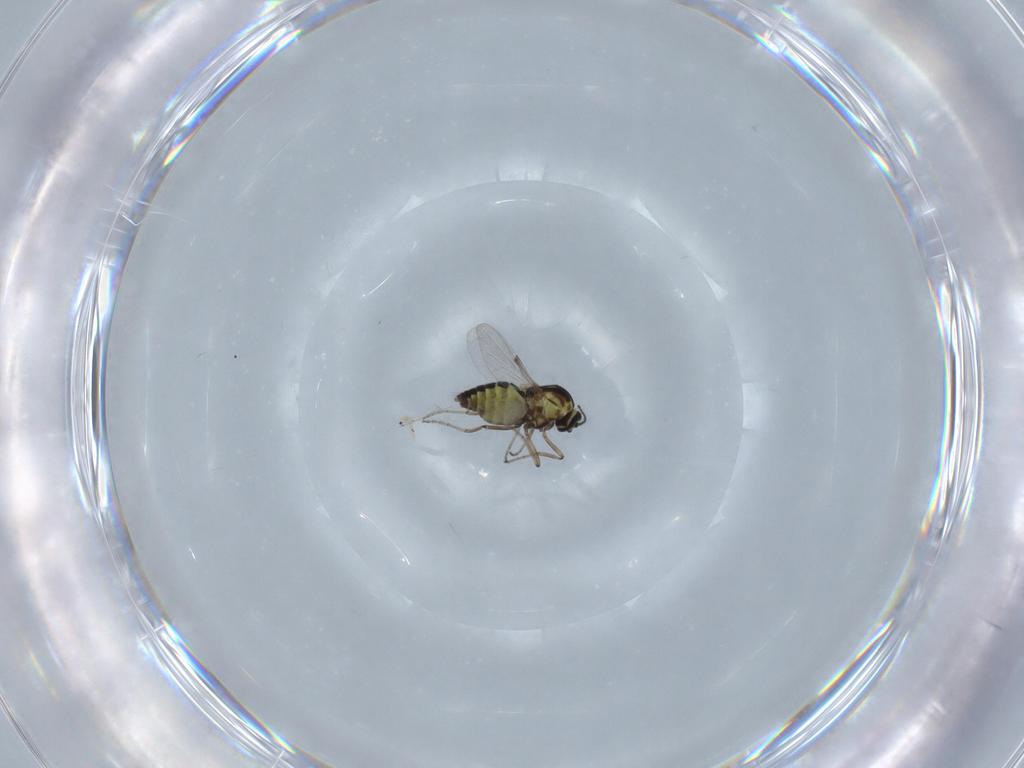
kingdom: Animalia
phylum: Arthropoda
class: Insecta
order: Diptera
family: Ceratopogonidae
